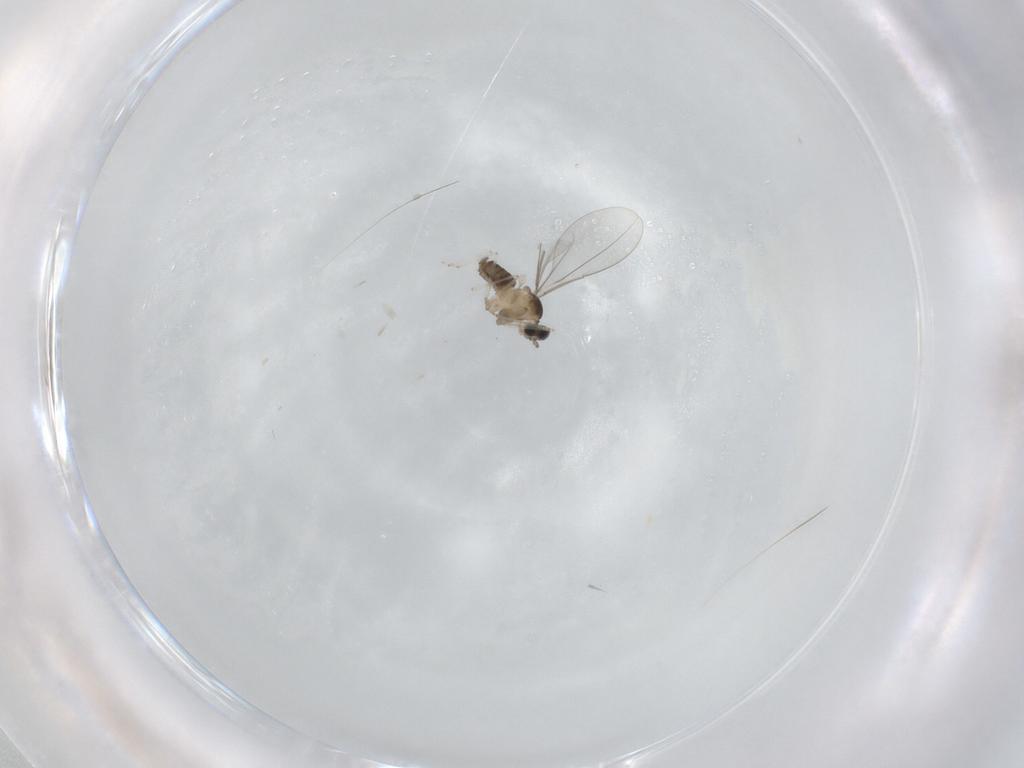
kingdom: Animalia
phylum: Arthropoda
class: Insecta
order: Diptera
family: Cecidomyiidae
